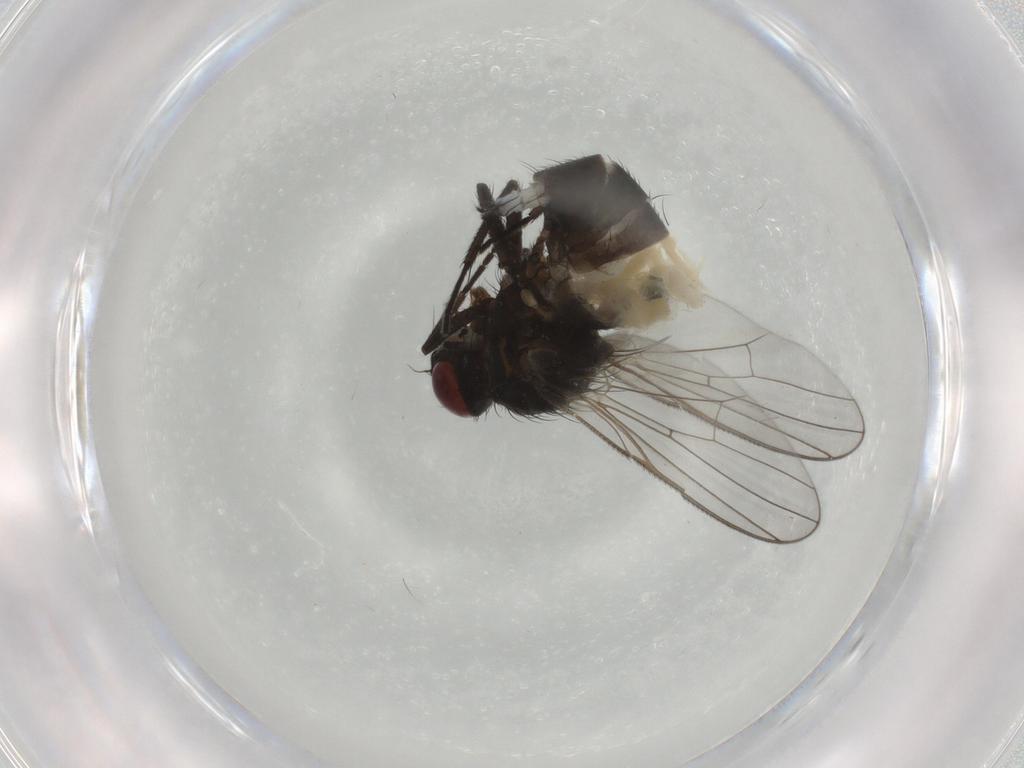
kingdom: Animalia
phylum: Arthropoda
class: Insecta
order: Diptera
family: Muscidae
